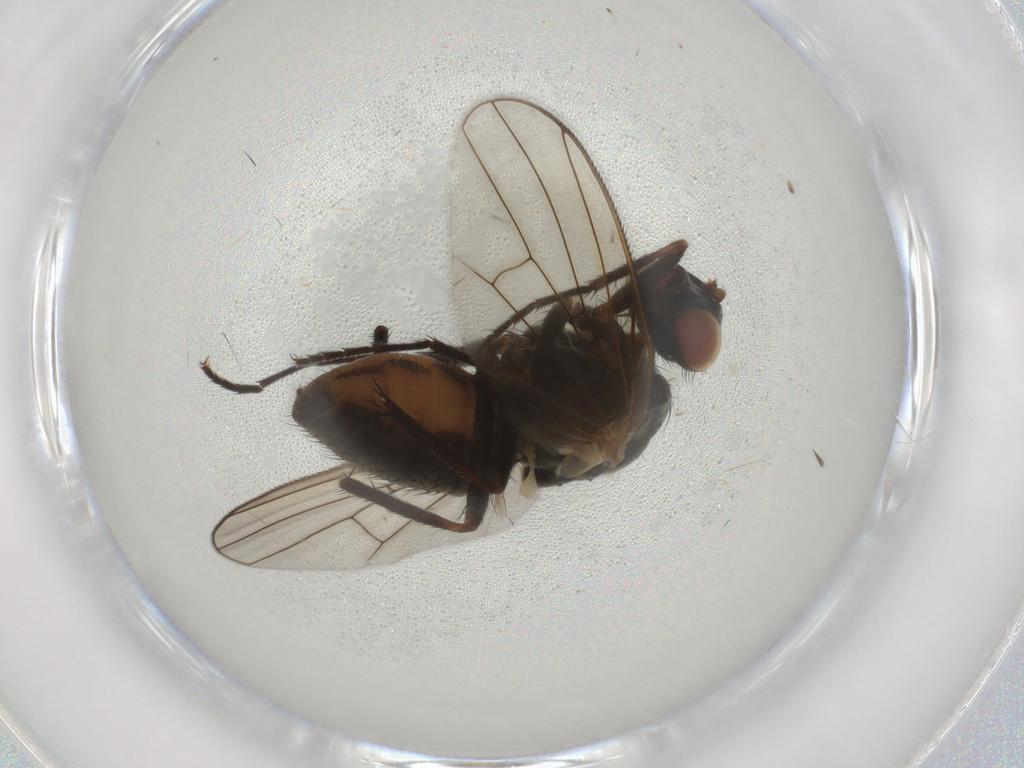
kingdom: Animalia
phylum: Arthropoda
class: Insecta
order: Diptera
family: Anthomyiidae
